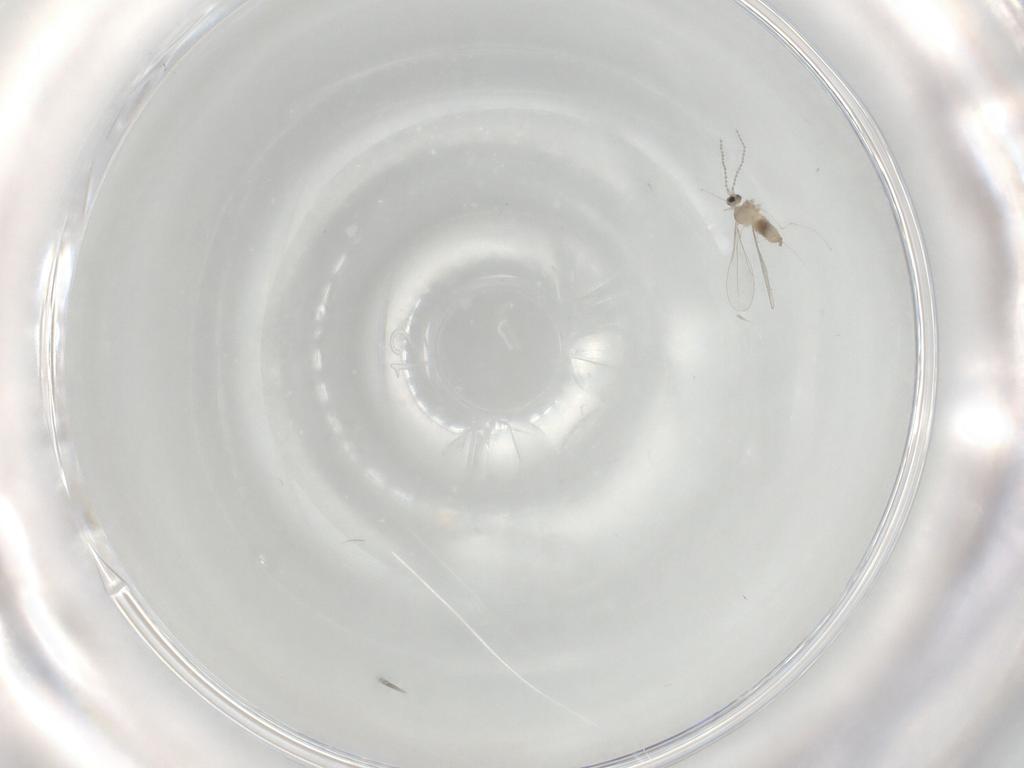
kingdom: Animalia
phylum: Arthropoda
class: Insecta
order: Diptera
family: Cecidomyiidae
